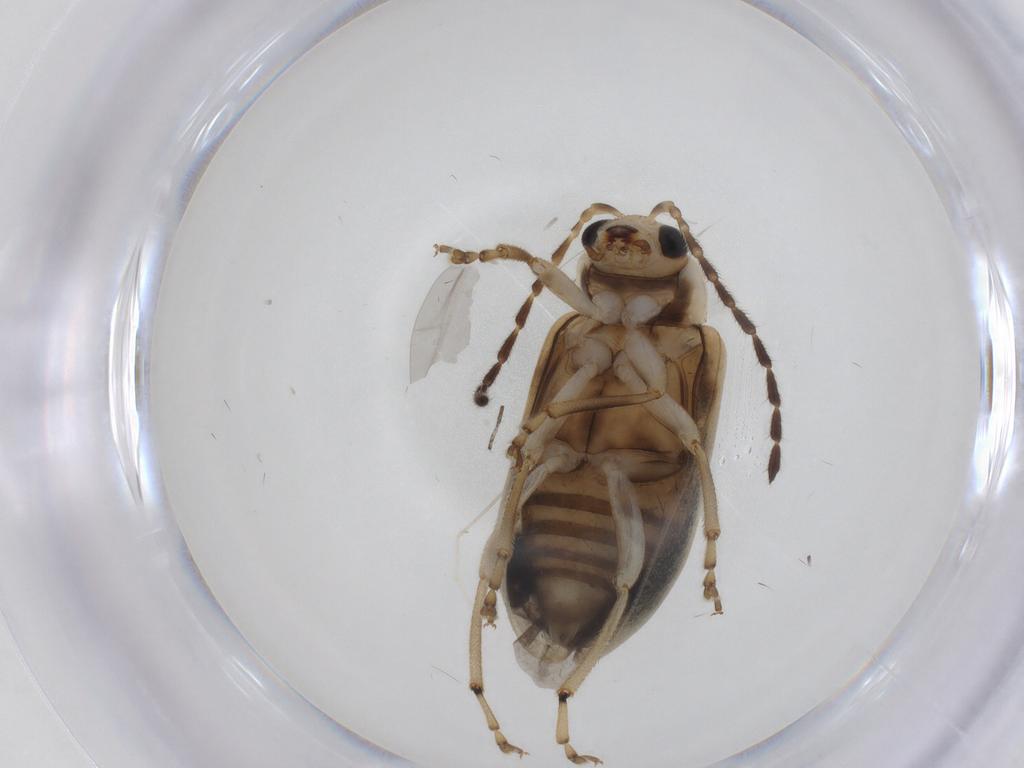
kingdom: Animalia
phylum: Arthropoda
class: Insecta
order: Coleoptera
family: Chrysomelidae
